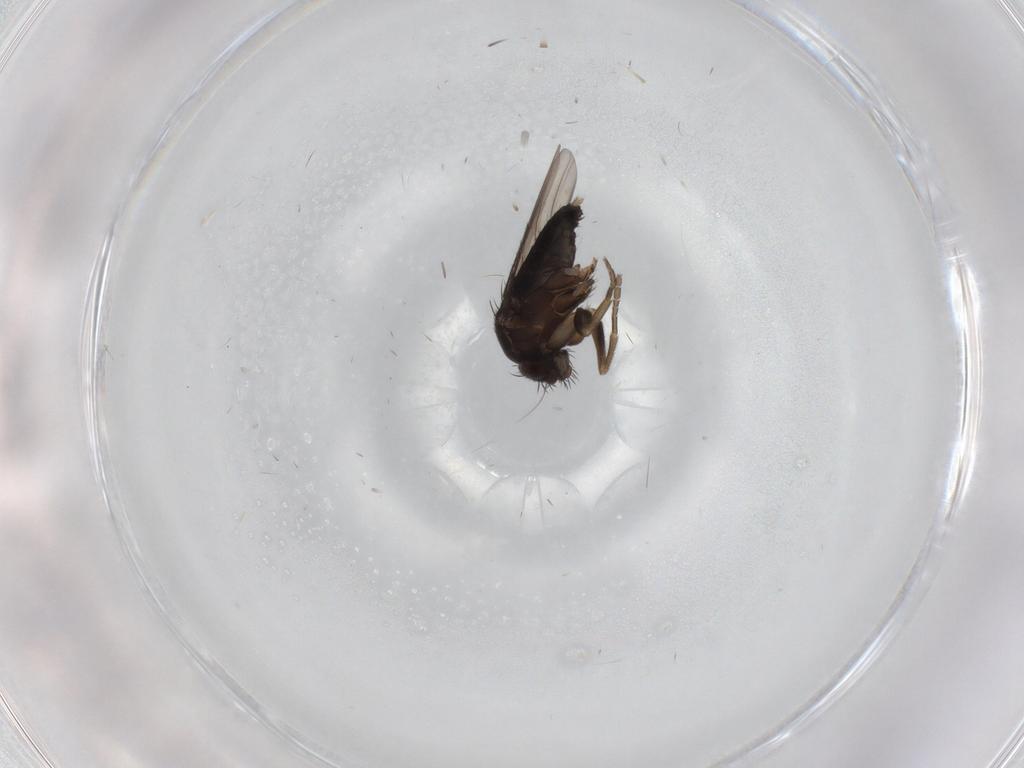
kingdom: Animalia
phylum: Arthropoda
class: Insecta
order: Diptera
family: Phoridae
